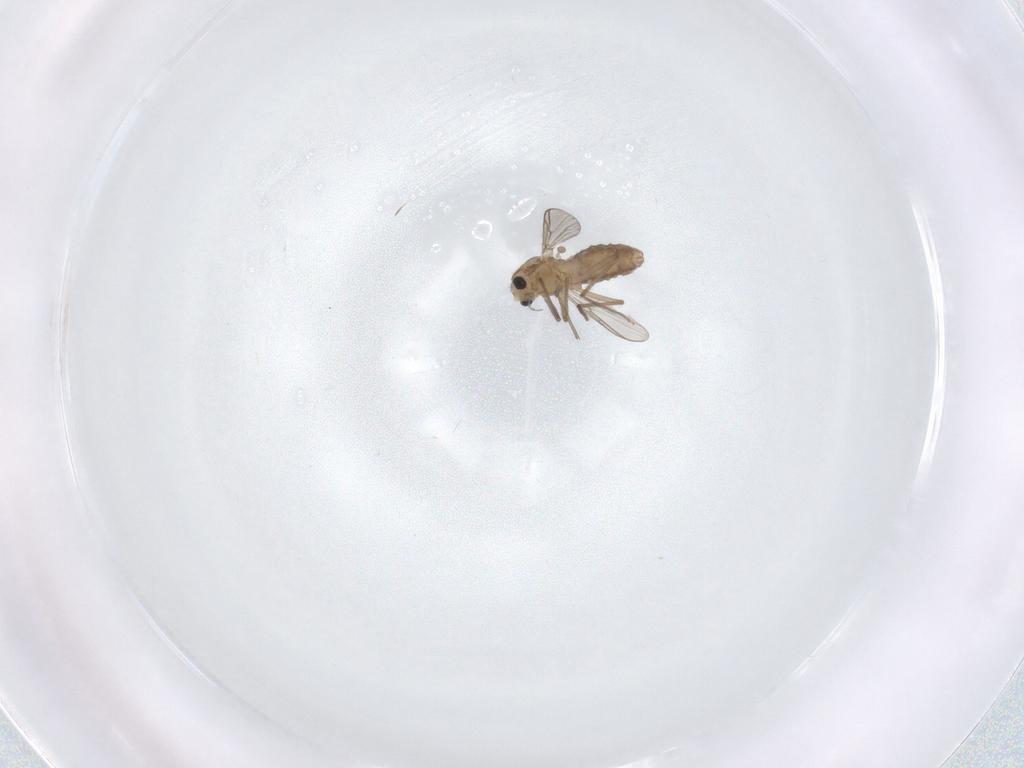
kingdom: Animalia
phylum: Arthropoda
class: Insecta
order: Diptera
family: Chironomidae
